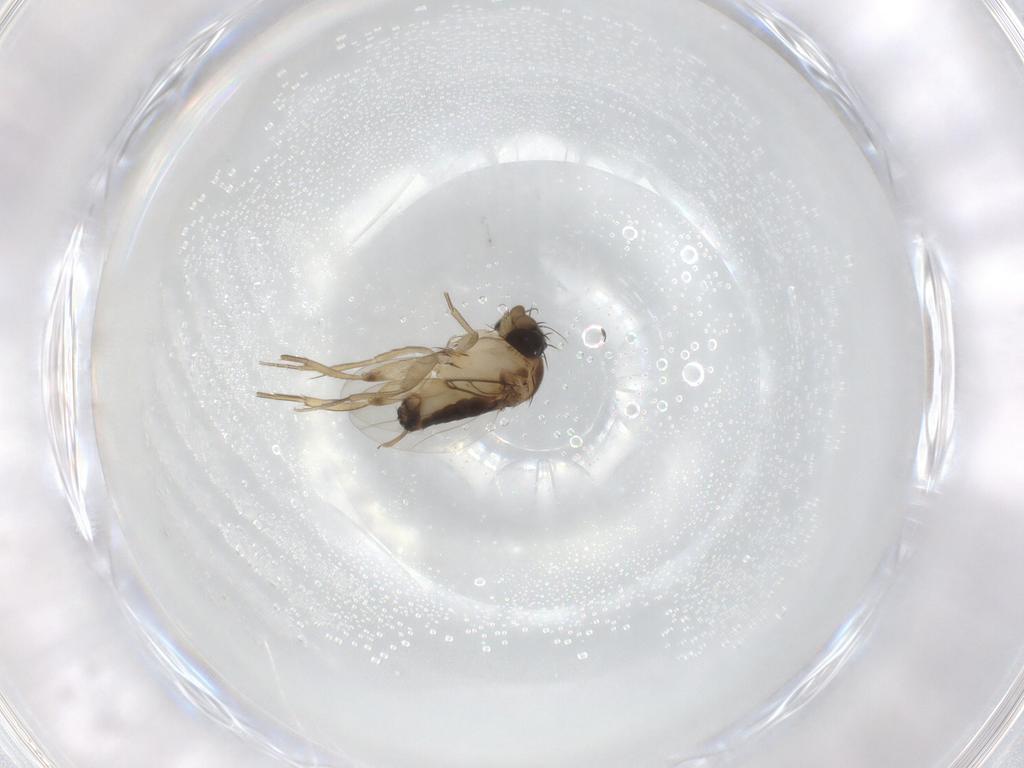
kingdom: Animalia
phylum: Arthropoda
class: Insecta
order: Diptera
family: Phoridae
